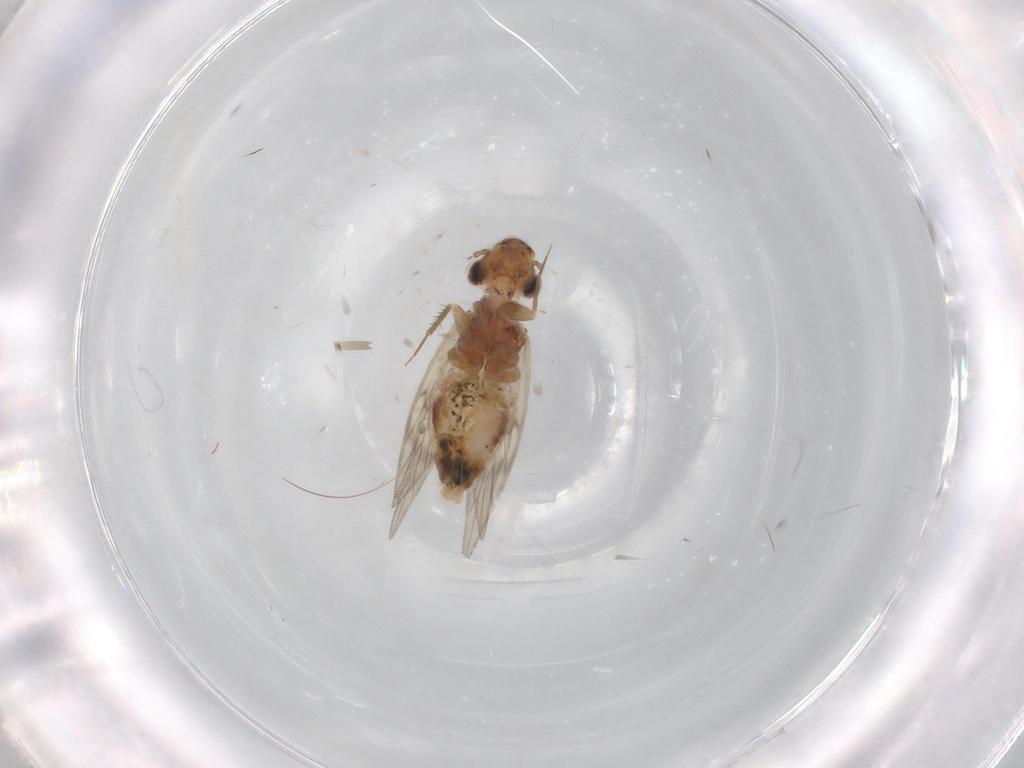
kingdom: Animalia
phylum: Arthropoda
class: Insecta
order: Psocodea
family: Lepidopsocidae
